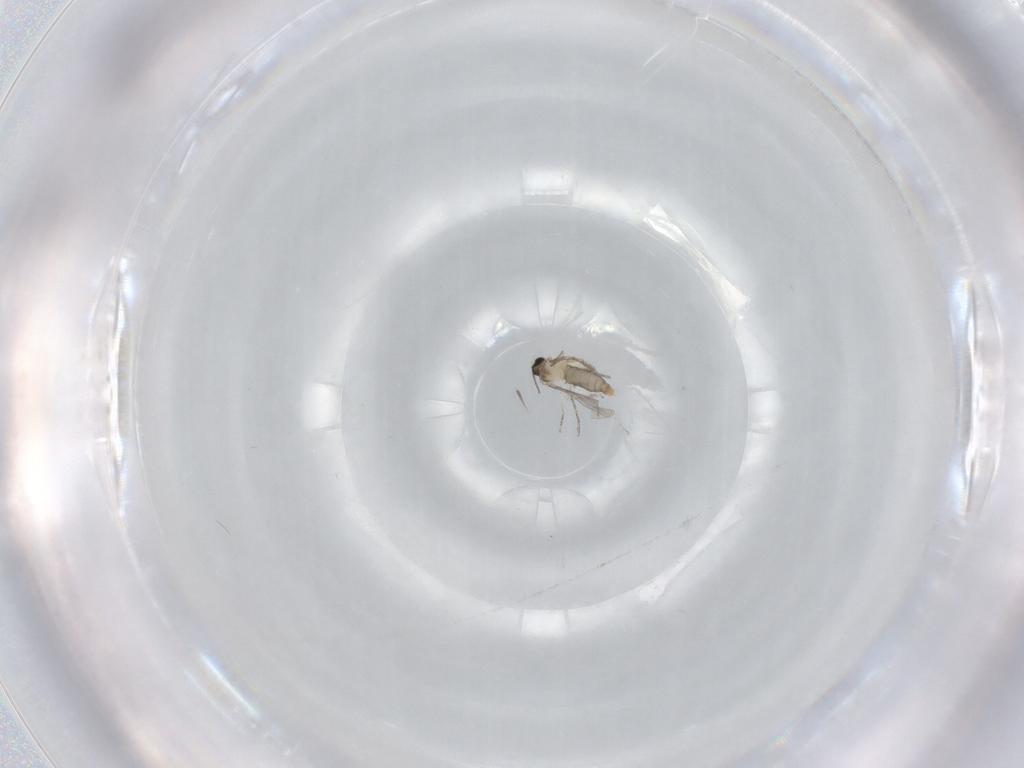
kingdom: Animalia
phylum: Arthropoda
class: Insecta
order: Diptera
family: Cecidomyiidae
